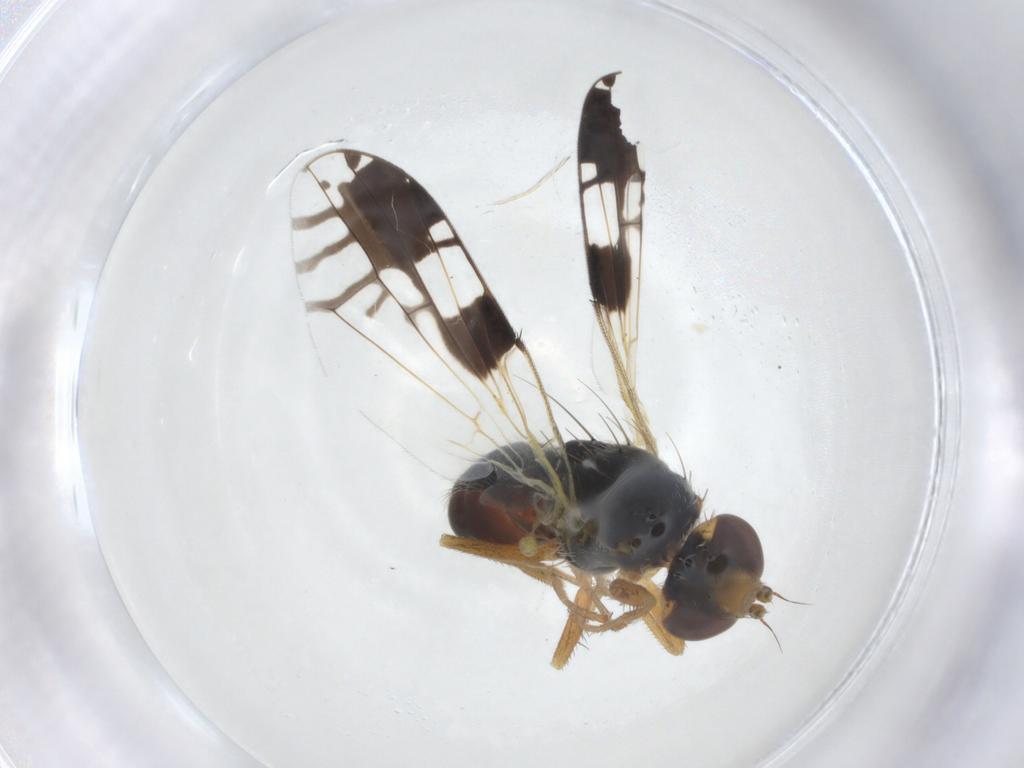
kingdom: Animalia
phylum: Arthropoda
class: Insecta
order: Diptera
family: Tephritidae
